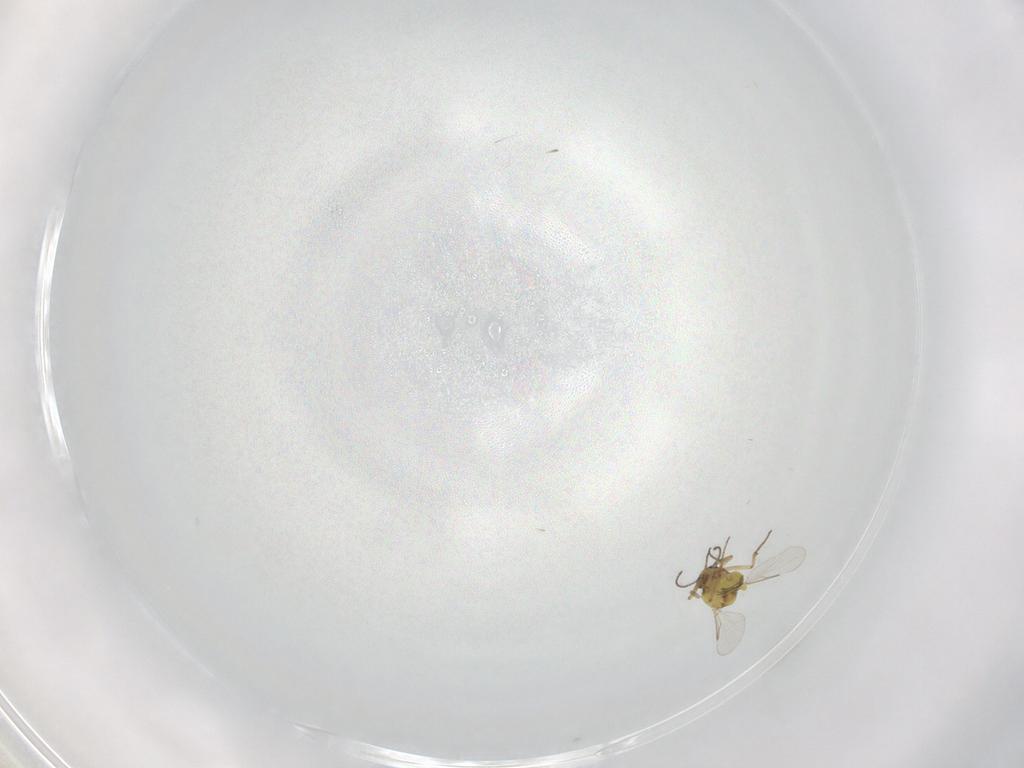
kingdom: Animalia
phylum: Arthropoda
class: Insecta
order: Diptera
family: Ceratopogonidae
